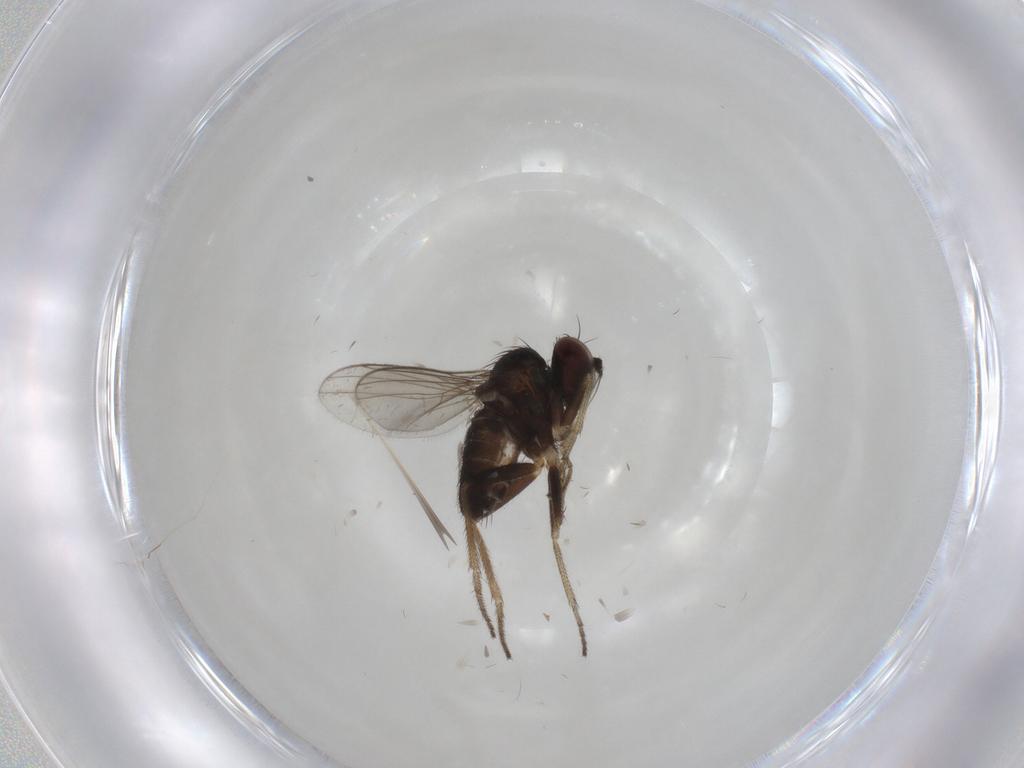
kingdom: Animalia
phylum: Arthropoda
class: Insecta
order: Diptera
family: Dolichopodidae
